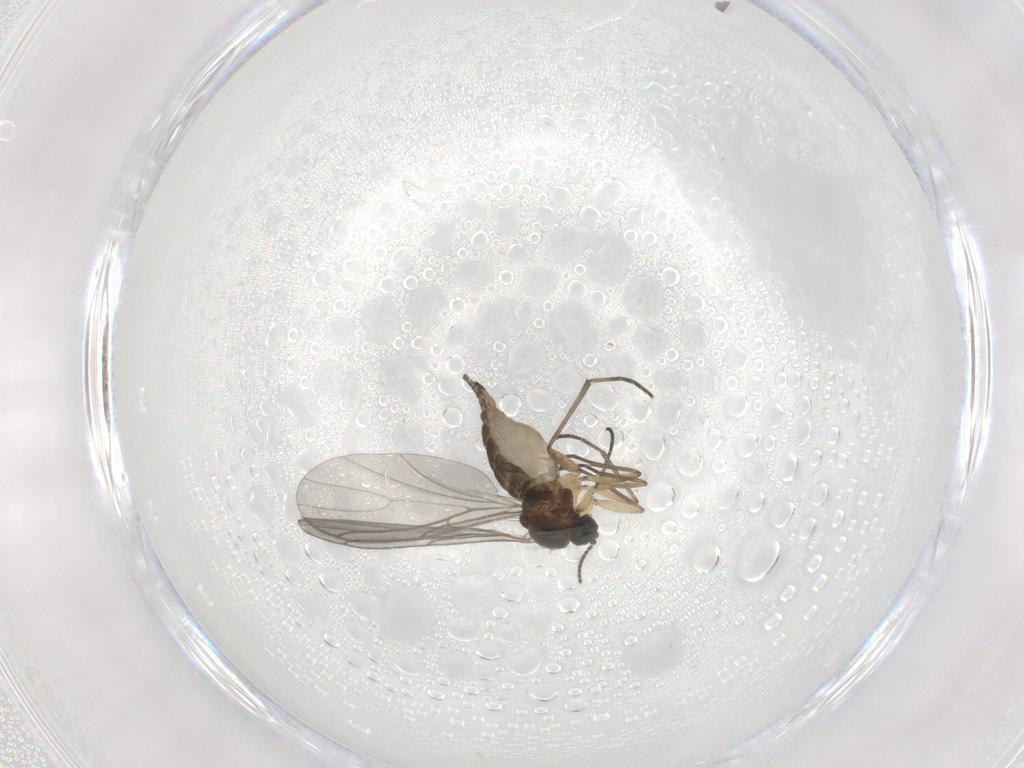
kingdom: Animalia
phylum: Arthropoda
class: Insecta
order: Diptera
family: Sciaridae
